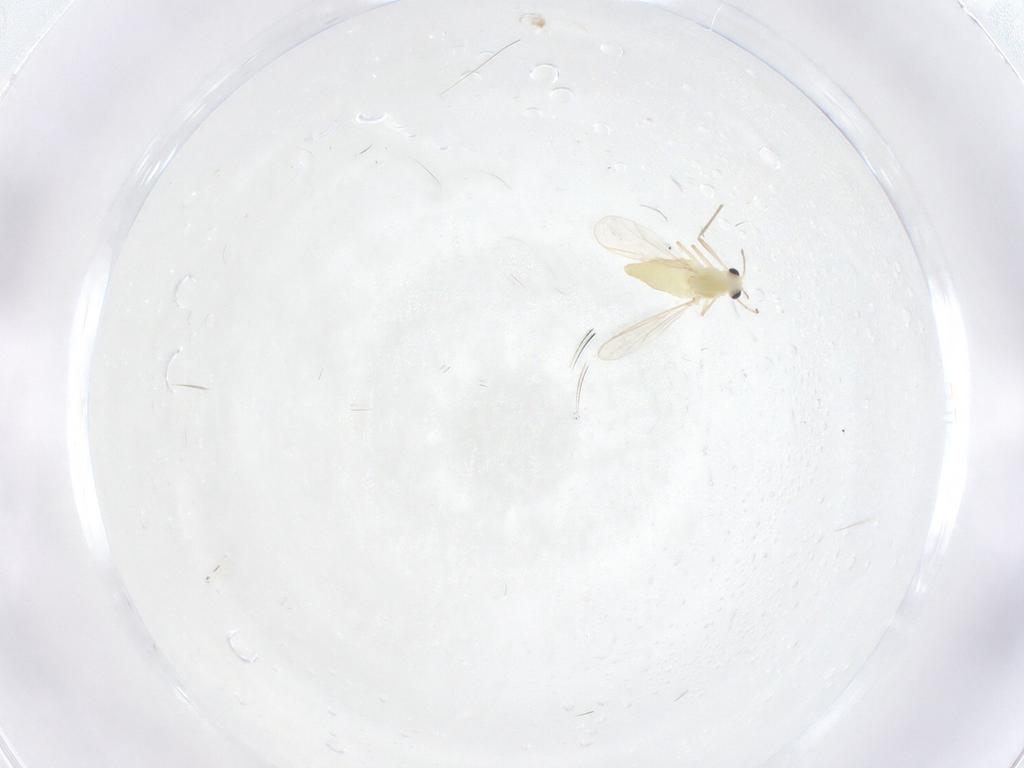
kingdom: Animalia
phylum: Arthropoda
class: Insecta
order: Diptera
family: Chironomidae
